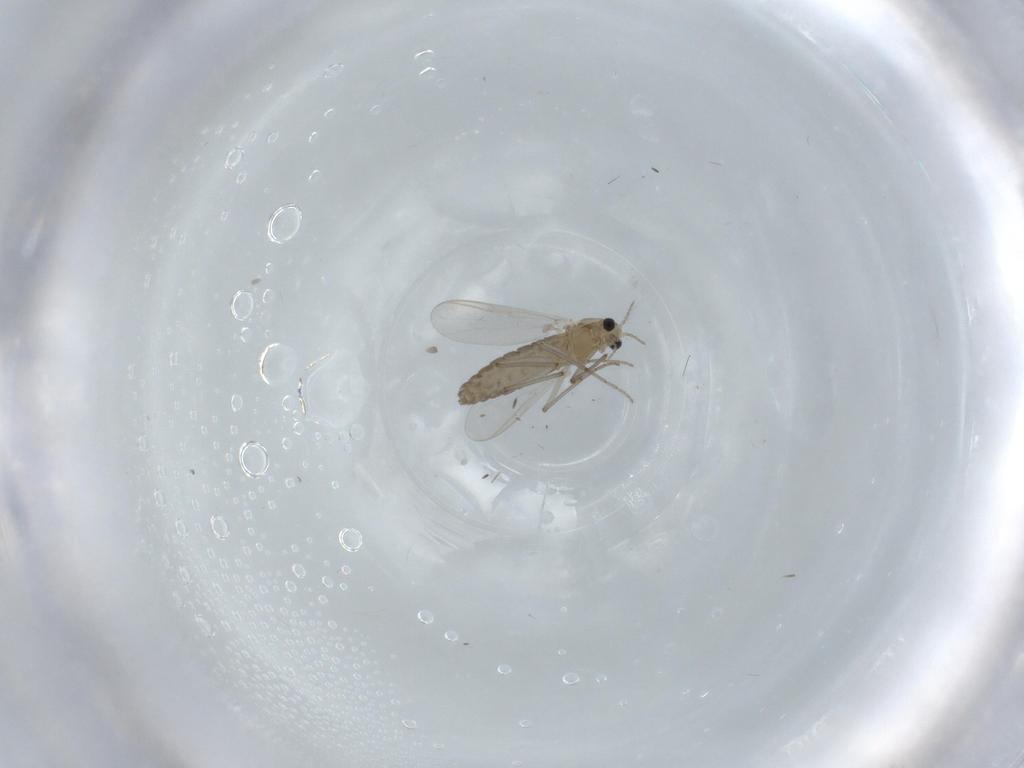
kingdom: Animalia
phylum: Arthropoda
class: Insecta
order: Diptera
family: Chironomidae
